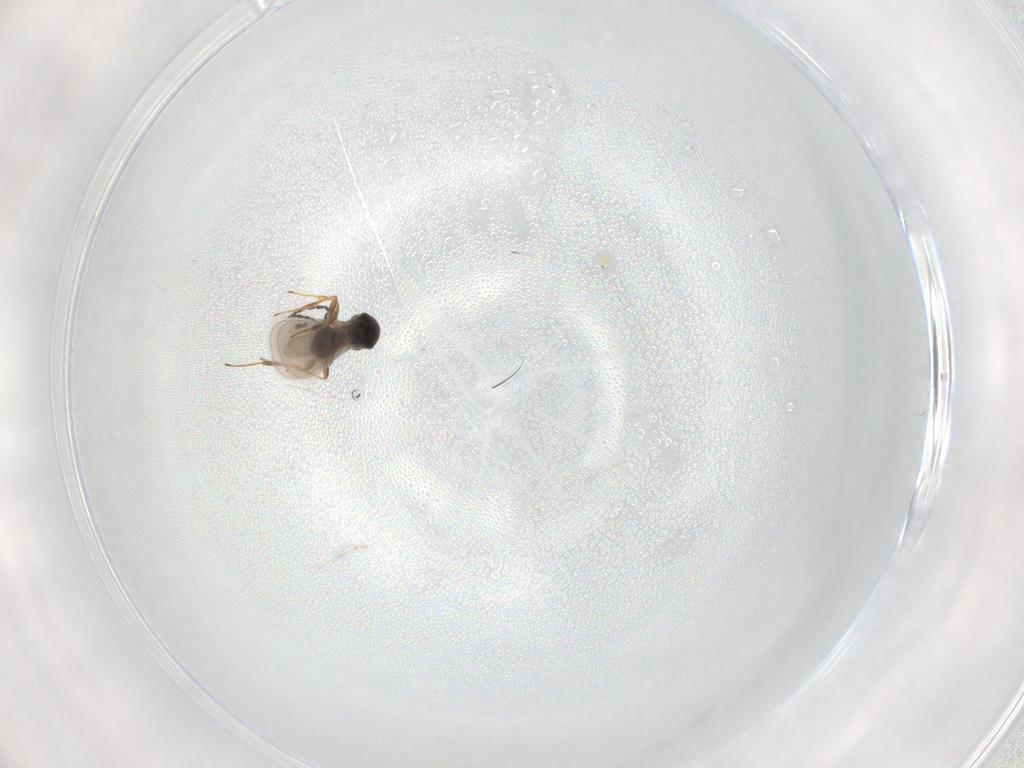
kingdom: Animalia
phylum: Arthropoda
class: Insecta
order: Hymenoptera
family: Platygastridae
